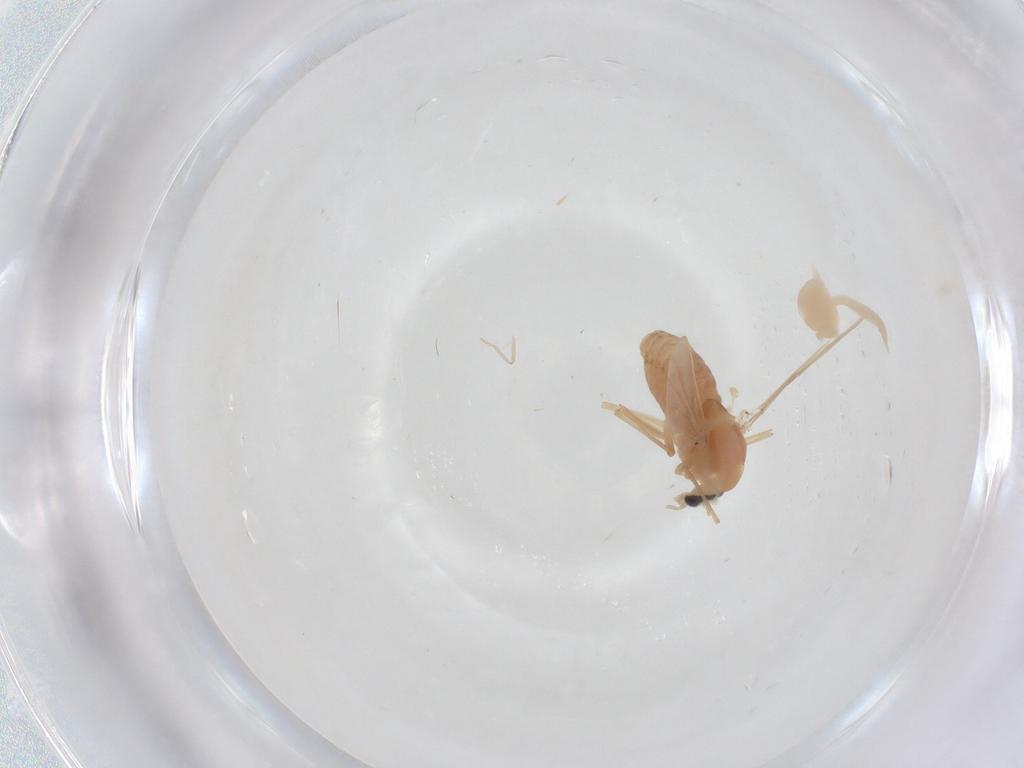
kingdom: Animalia
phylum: Arthropoda
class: Insecta
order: Diptera
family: Chironomidae
